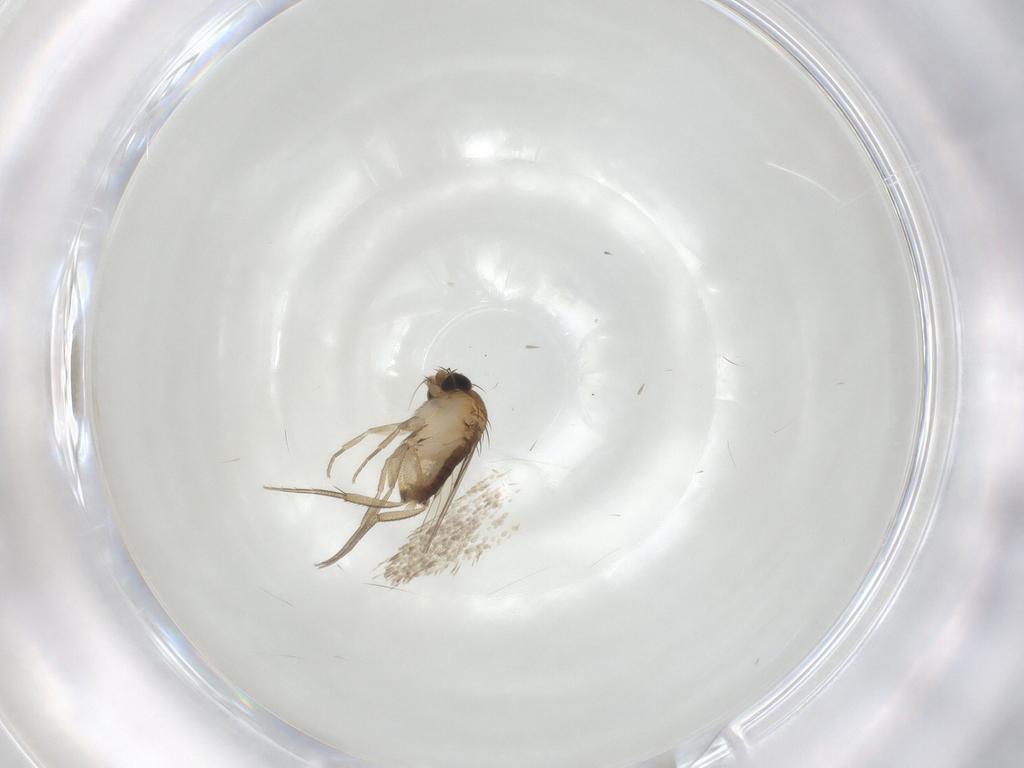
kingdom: Animalia
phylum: Arthropoda
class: Insecta
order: Diptera
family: Phoridae
